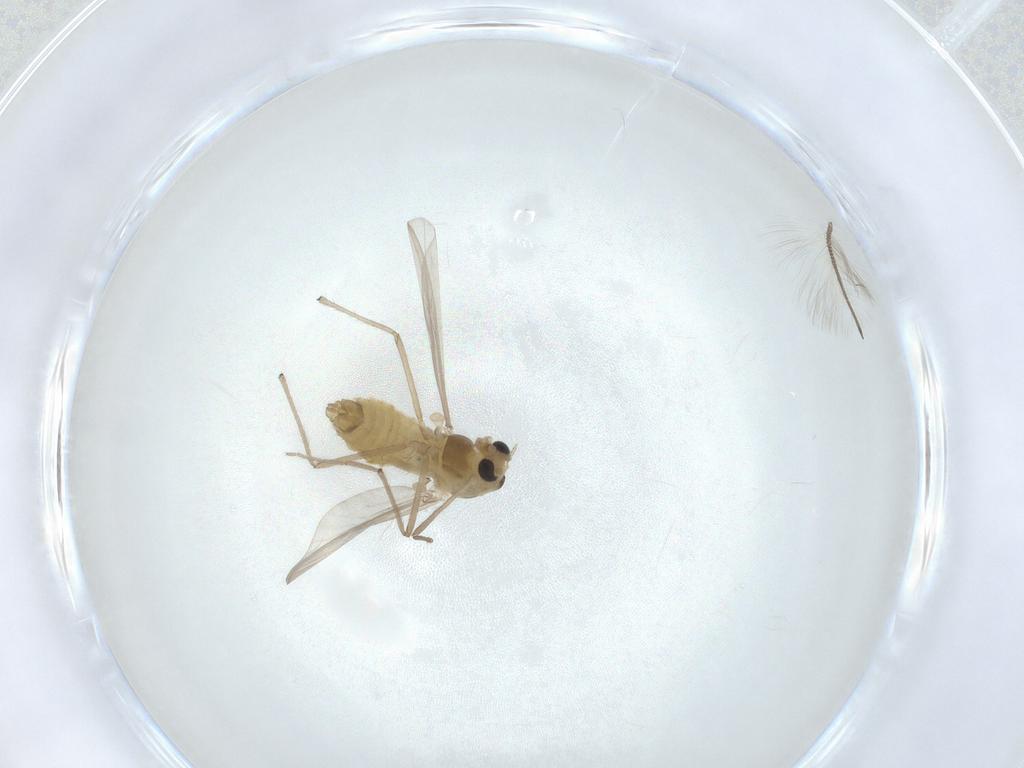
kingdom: Animalia
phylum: Arthropoda
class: Insecta
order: Diptera
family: Chironomidae
